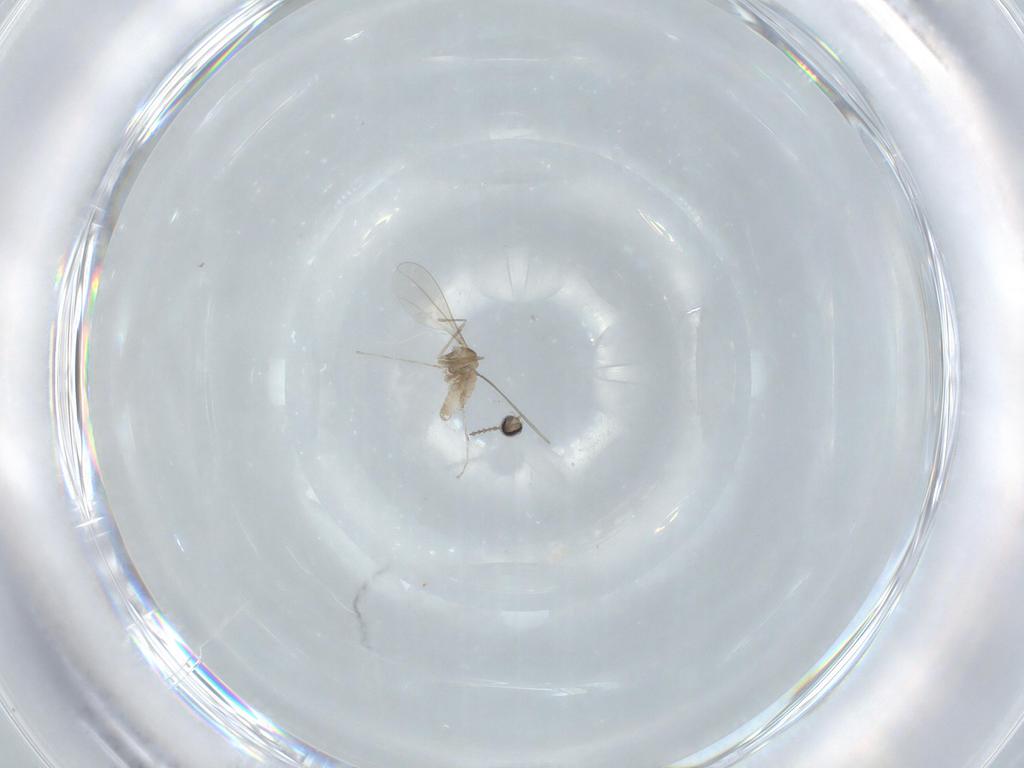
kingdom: Animalia
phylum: Arthropoda
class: Insecta
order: Diptera
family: Cecidomyiidae
